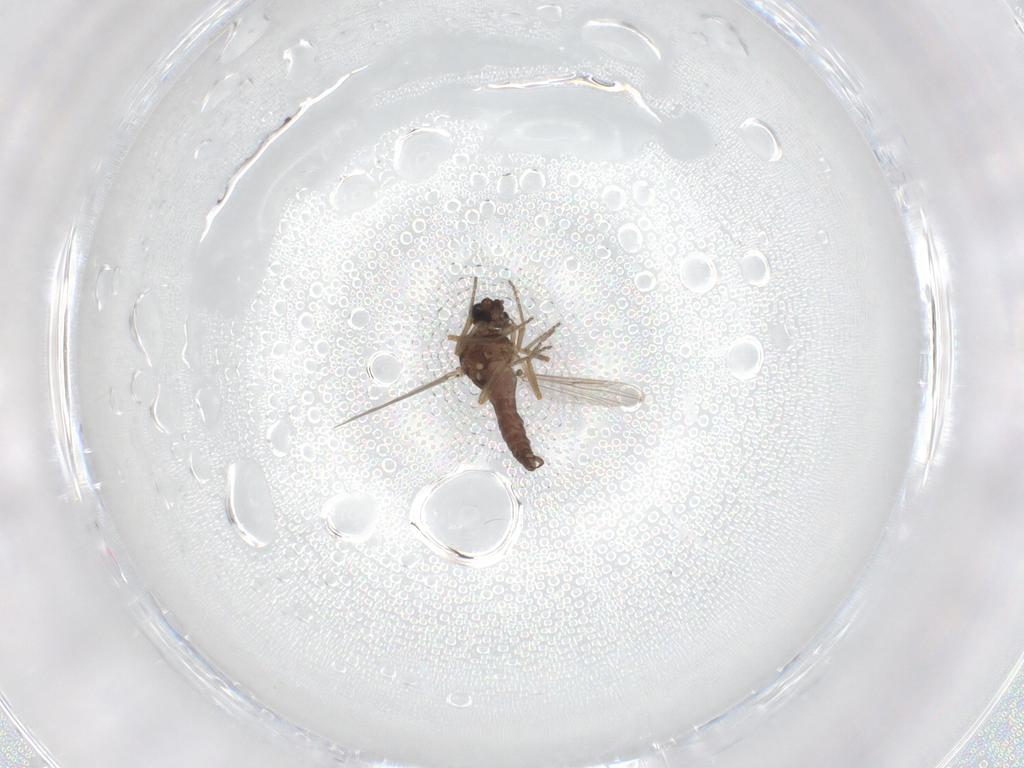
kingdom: Animalia
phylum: Arthropoda
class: Insecta
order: Diptera
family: Ceratopogonidae
